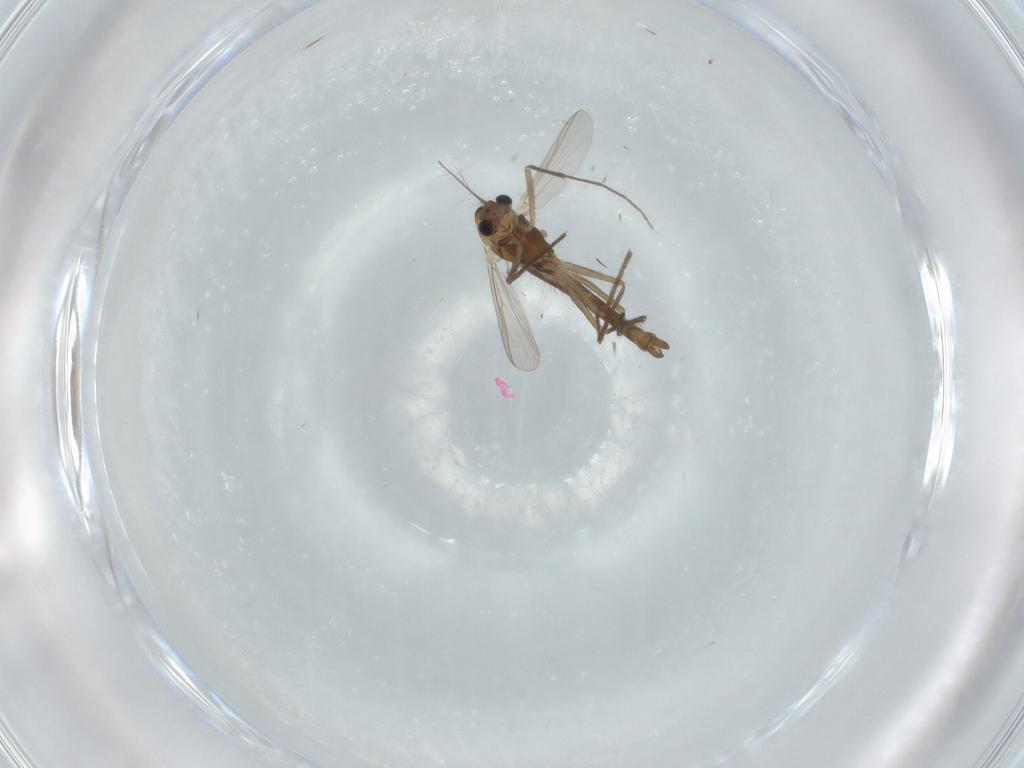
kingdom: Animalia
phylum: Arthropoda
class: Insecta
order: Diptera
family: Chironomidae
